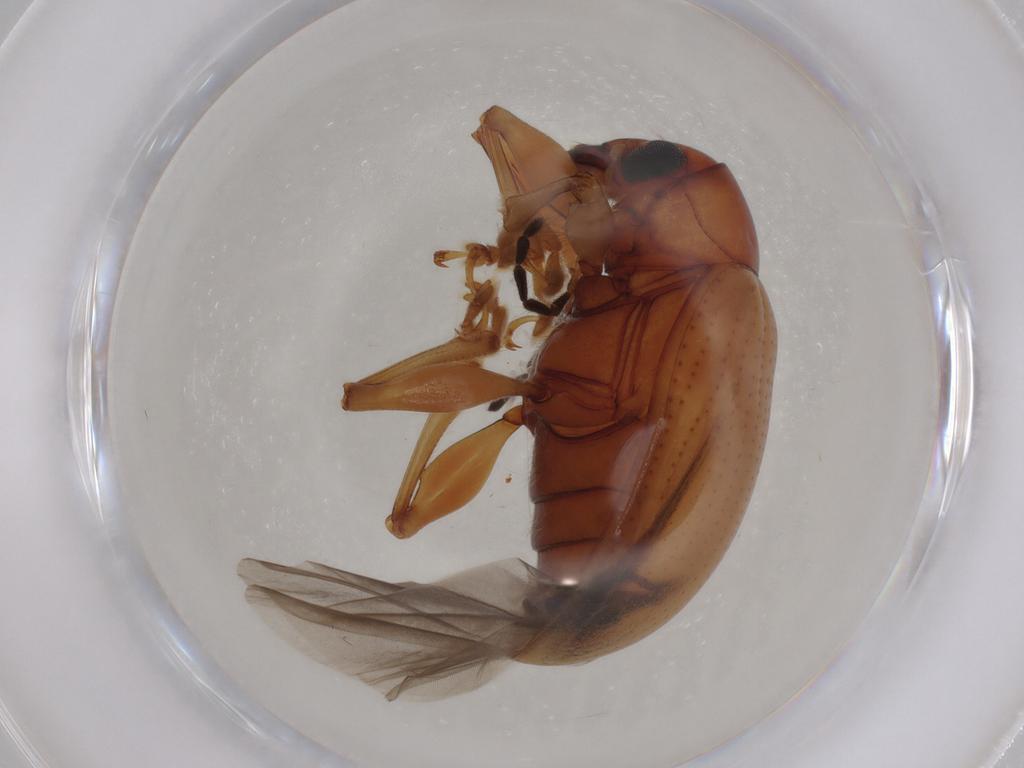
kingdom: Animalia
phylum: Arthropoda
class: Insecta
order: Coleoptera
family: Chrysomelidae
